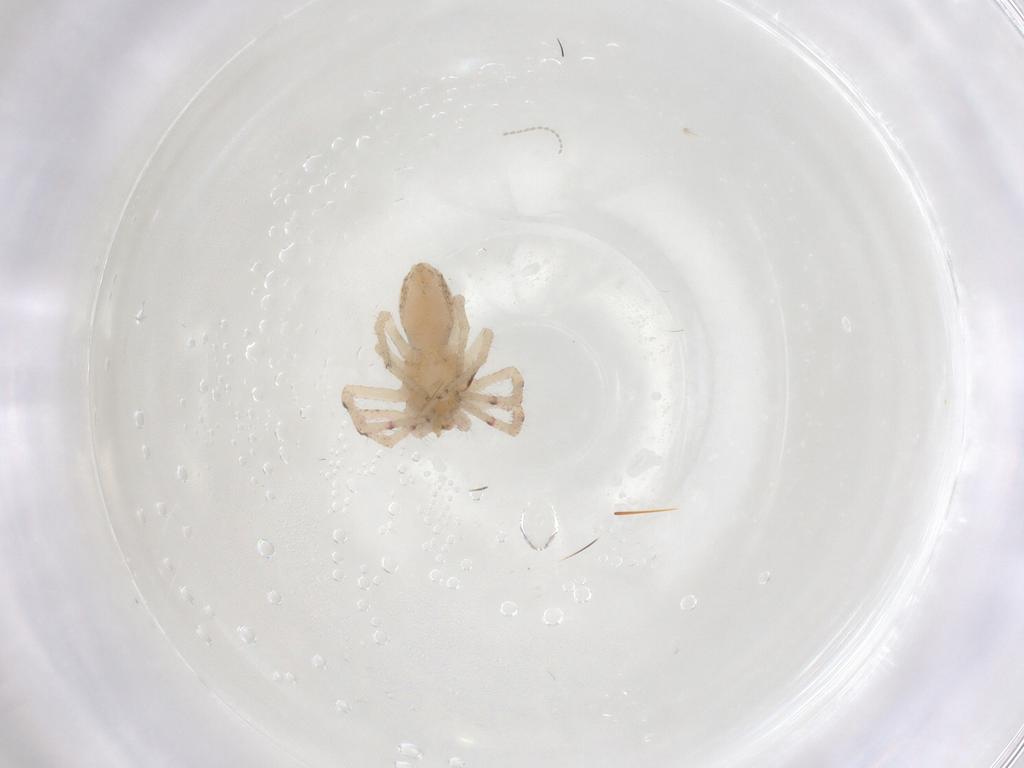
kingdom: Animalia
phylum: Arthropoda
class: Arachnida
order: Araneae
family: Thomisidae
